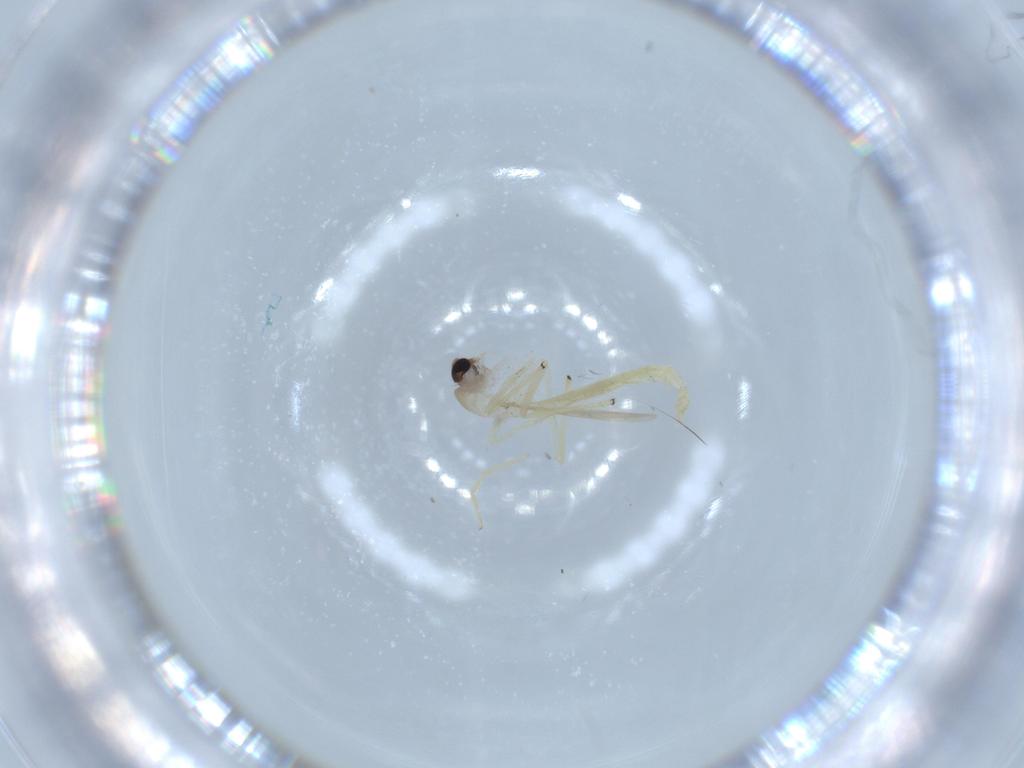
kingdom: Animalia
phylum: Arthropoda
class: Insecta
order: Diptera
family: Chironomidae
